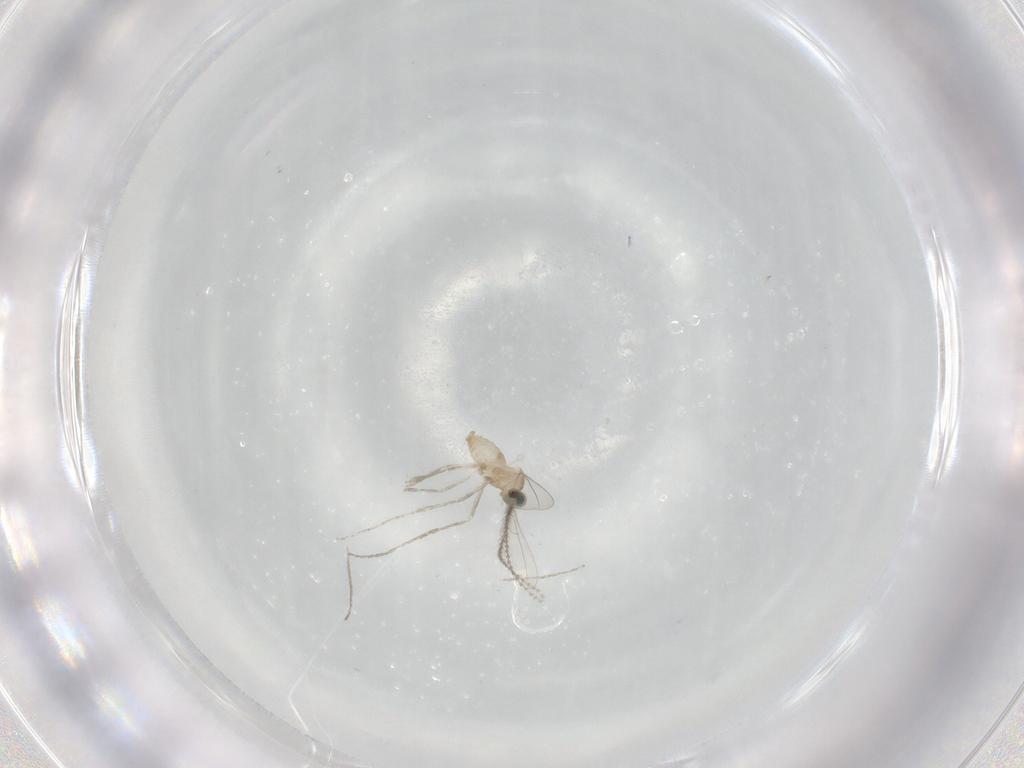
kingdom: Animalia
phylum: Arthropoda
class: Insecta
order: Diptera
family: Cecidomyiidae
